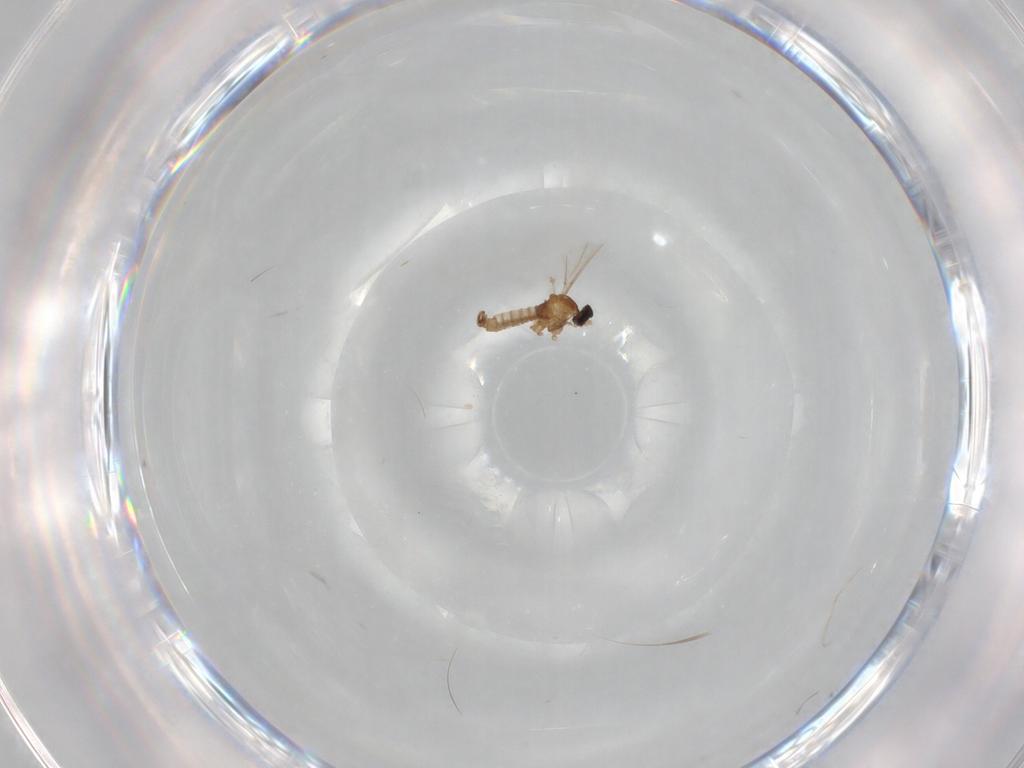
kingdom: Animalia
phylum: Arthropoda
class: Insecta
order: Diptera
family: Cecidomyiidae
